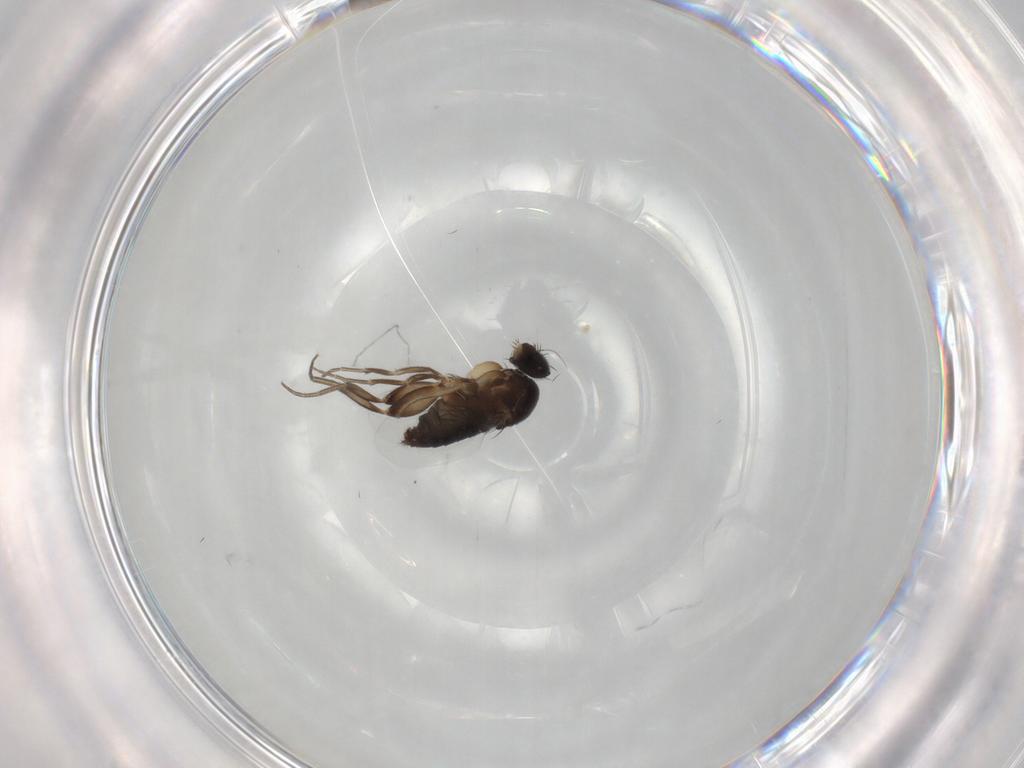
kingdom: Animalia
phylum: Arthropoda
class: Insecta
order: Diptera
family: Phoridae
